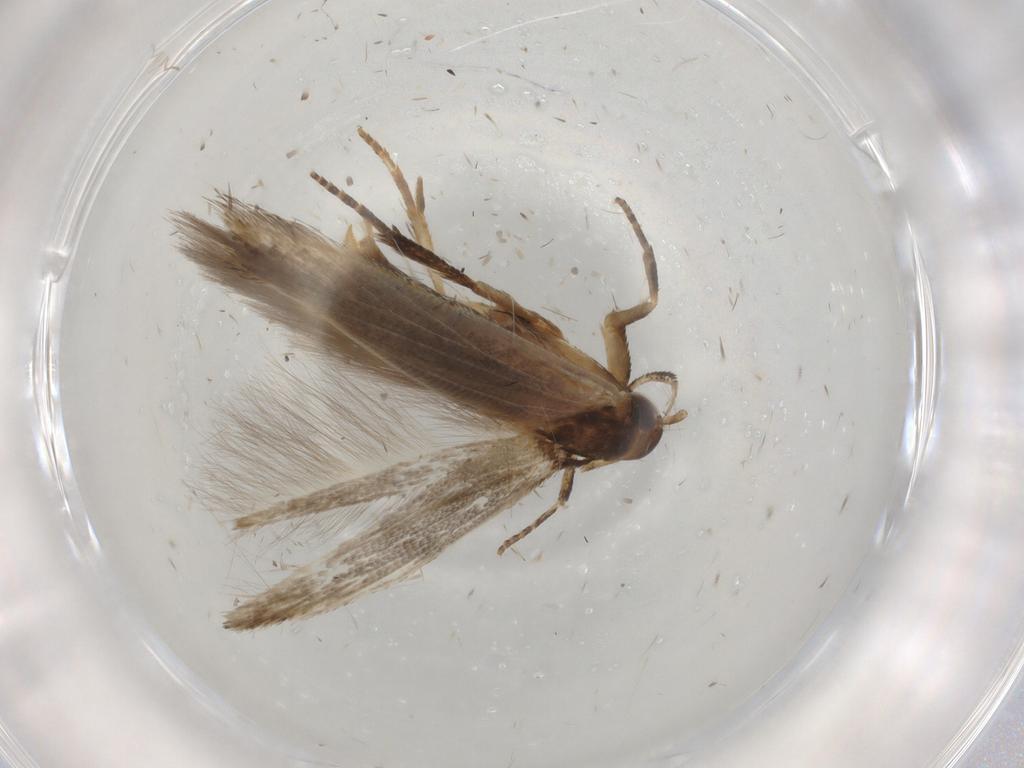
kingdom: Animalia
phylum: Arthropoda
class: Insecta
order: Lepidoptera
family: Cosmopterigidae
